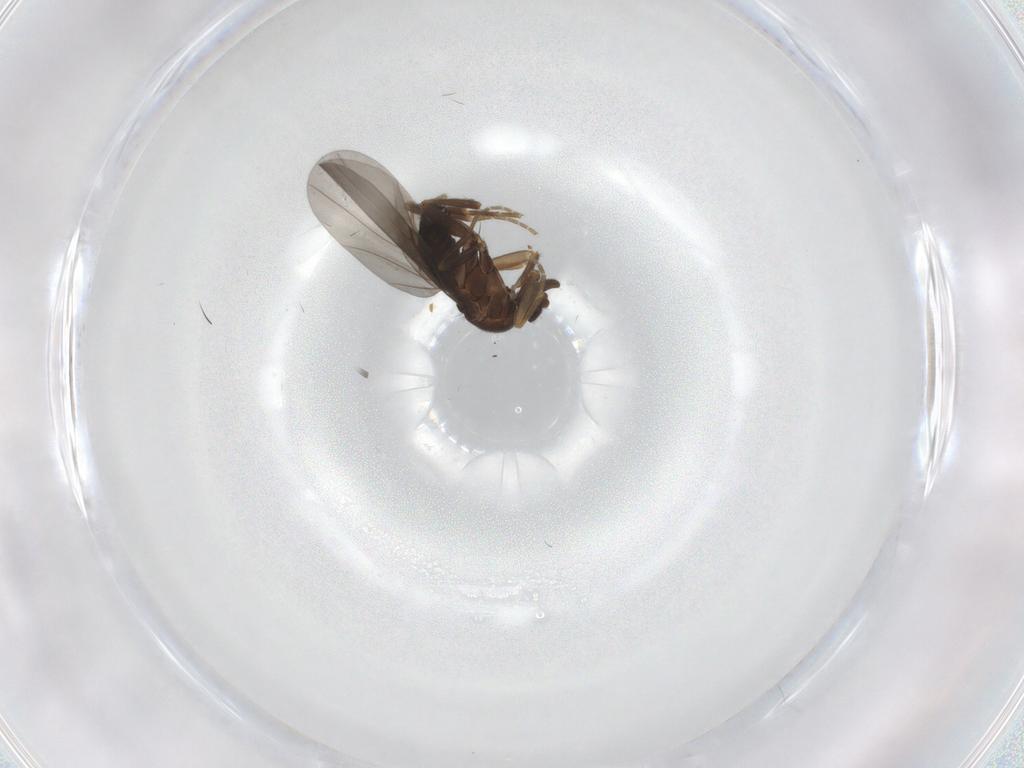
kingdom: Animalia
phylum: Arthropoda
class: Insecta
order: Diptera
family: Phoridae
